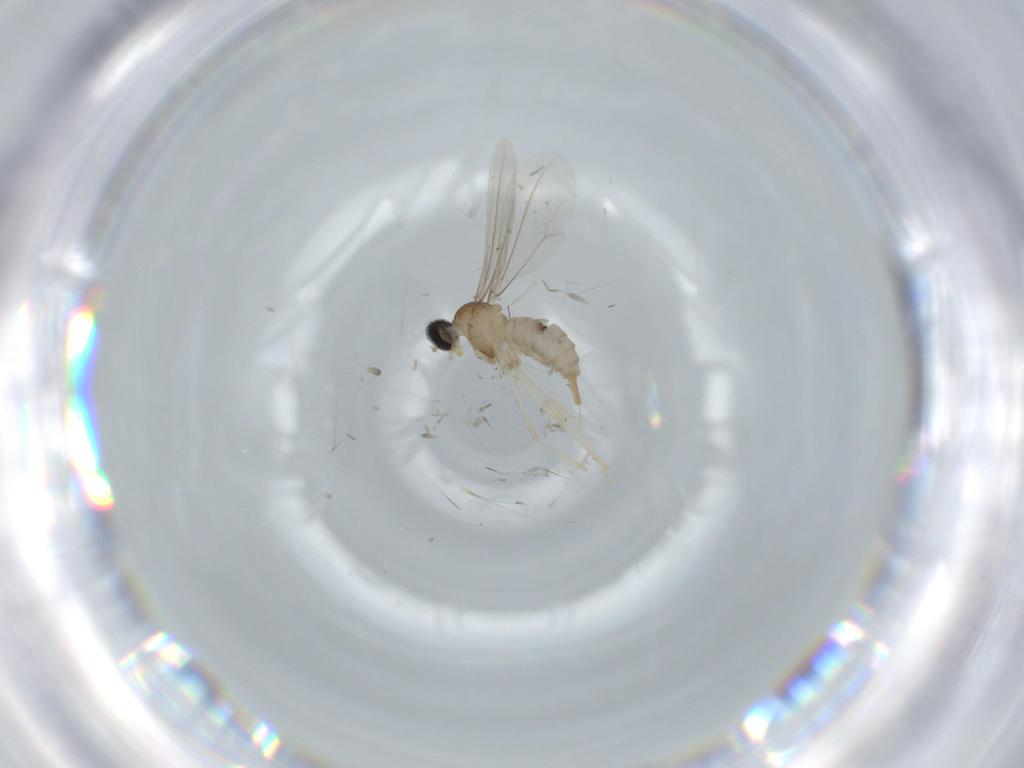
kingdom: Animalia
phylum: Arthropoda
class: Insecta
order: Diptera
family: Cecidomyiidae
